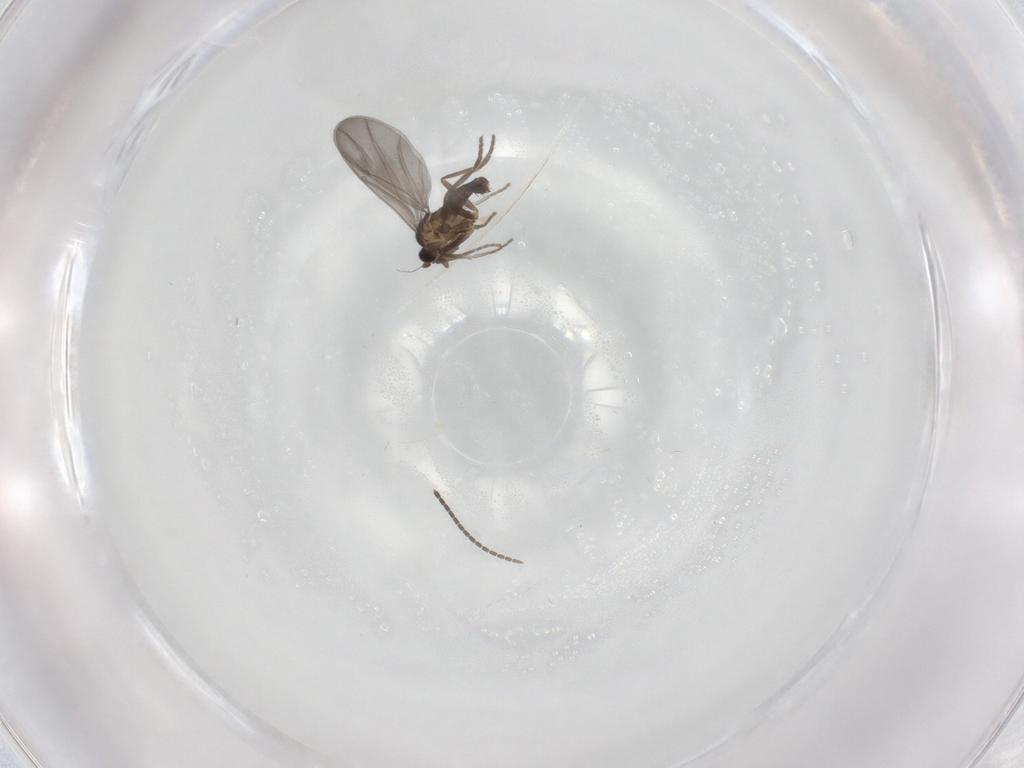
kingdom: Animalia
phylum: Arthropoda
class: Insecta
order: Diptera
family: Phoridae
